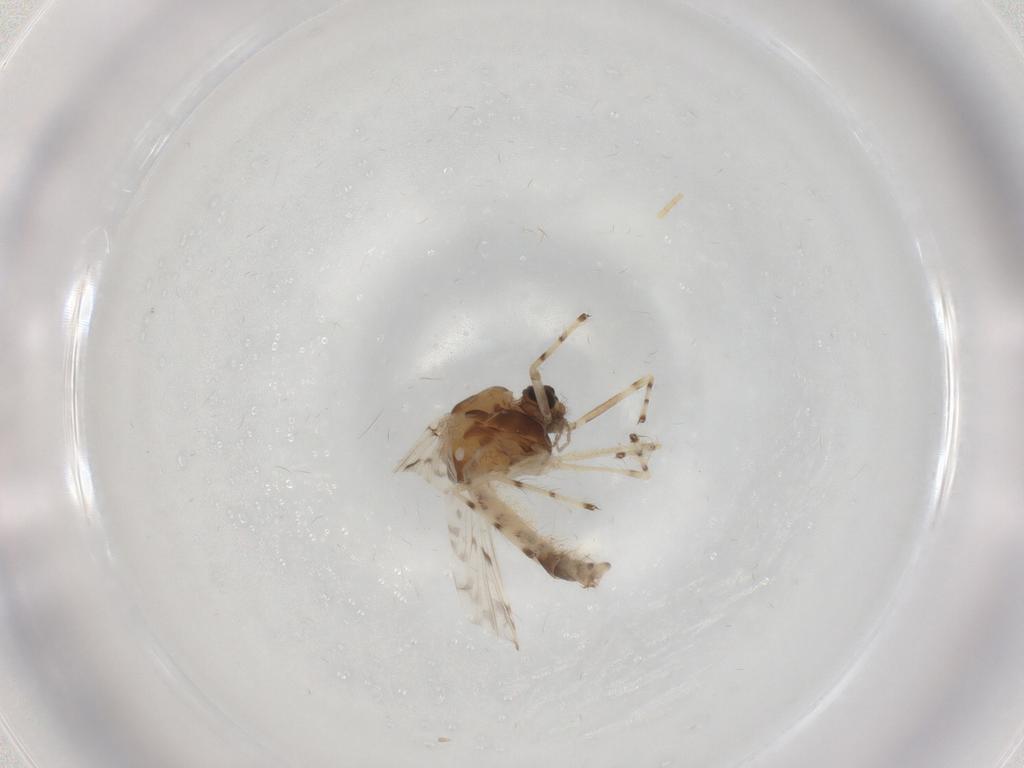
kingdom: Animalia
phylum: Arthropoda
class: Insecta
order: Diptera
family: Chironomidae
